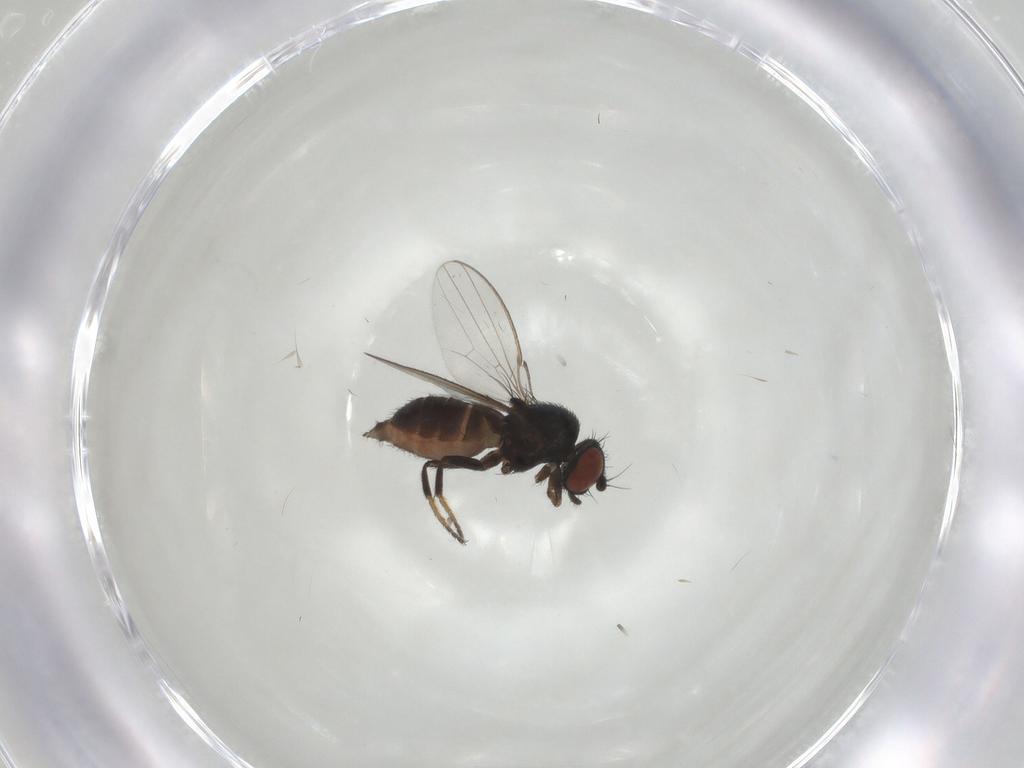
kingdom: Animalia
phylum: Arthropoda
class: Insecta
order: Diptera
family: Milichiidae
